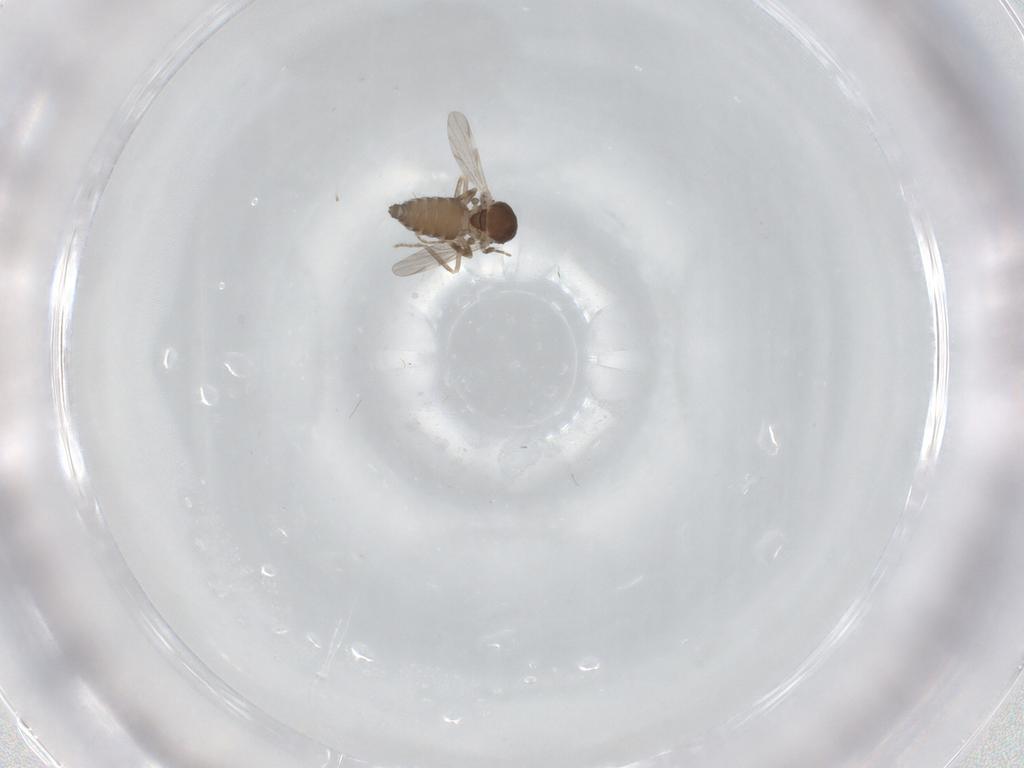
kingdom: Animalia
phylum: Arthropoda
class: Insecta
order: Diptera
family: Ceratopogonidae
